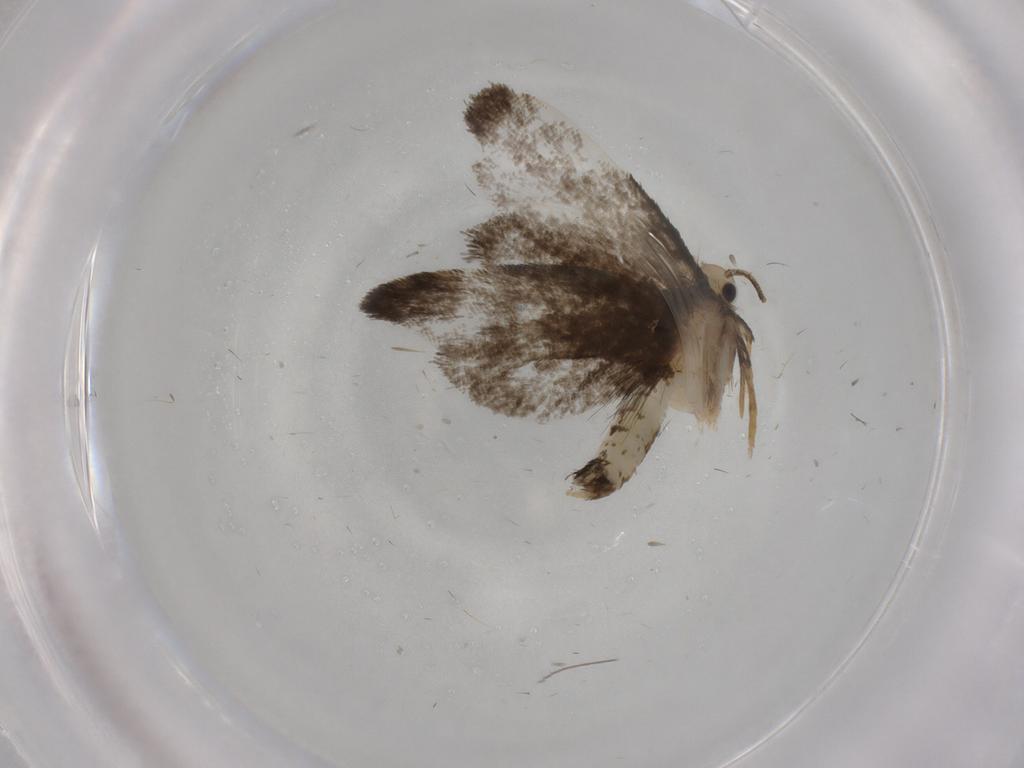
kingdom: Animalia
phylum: Arthropoda
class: Insecta
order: Lepidoptera
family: Psychidae
